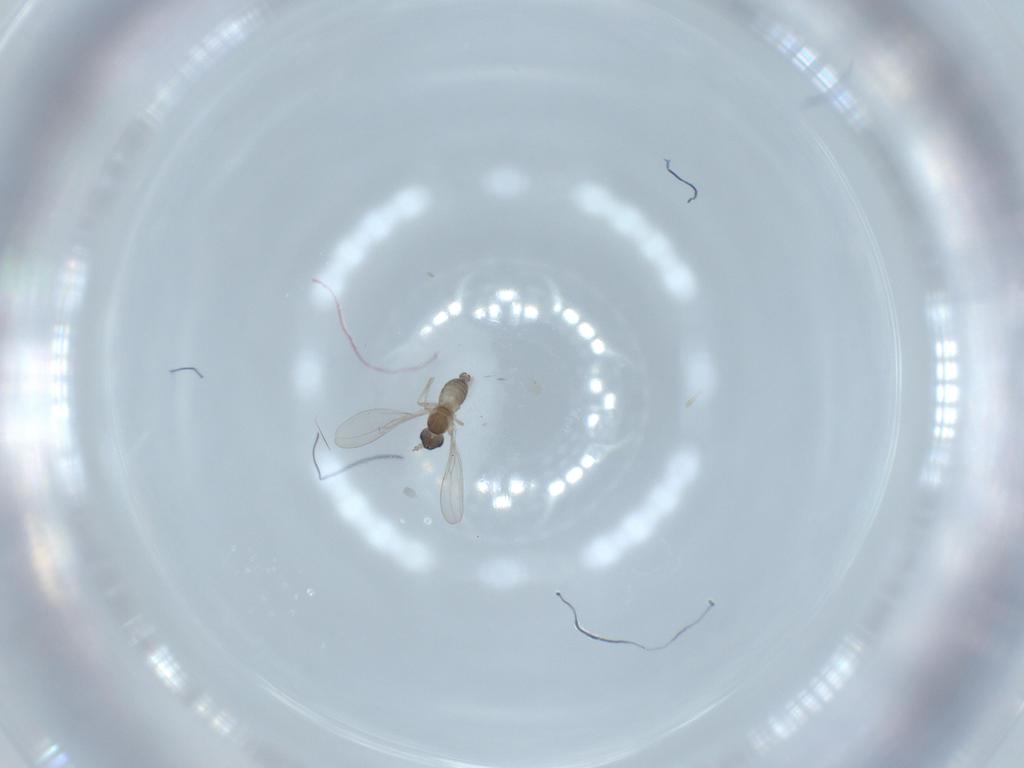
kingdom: Animalia
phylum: Arthropoda
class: Insecta
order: Diptera
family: Cecidomyiidae
